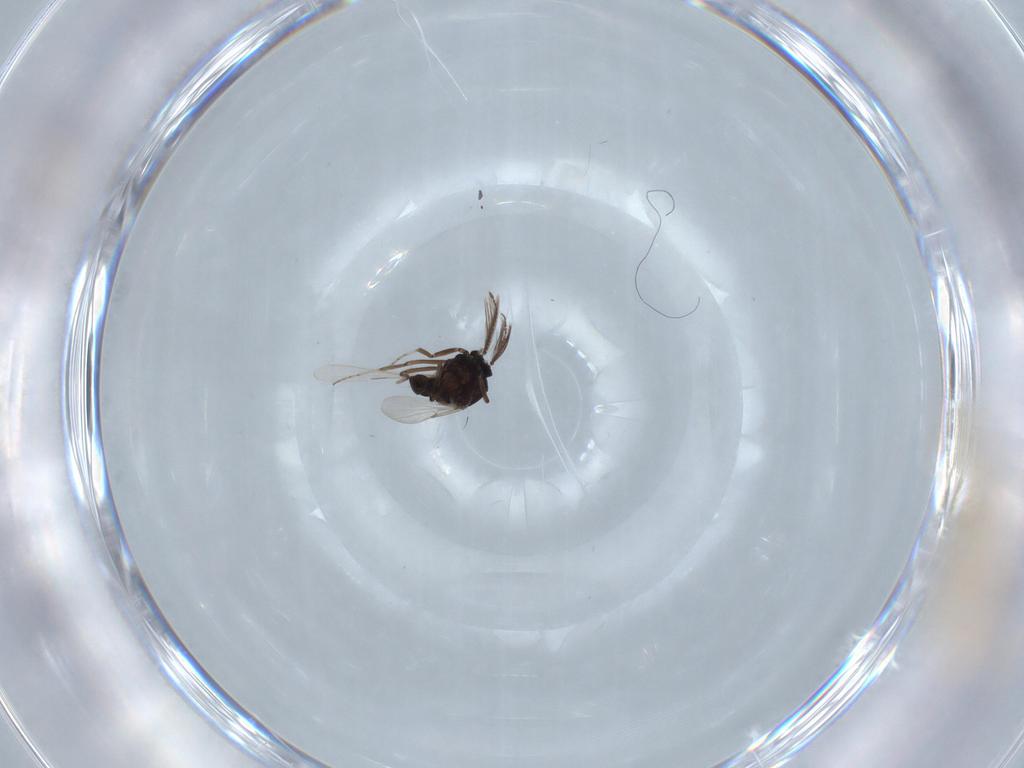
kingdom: Animalia
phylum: Arthropoda
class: Insecta
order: Diptera
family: Ceratopogonidae
